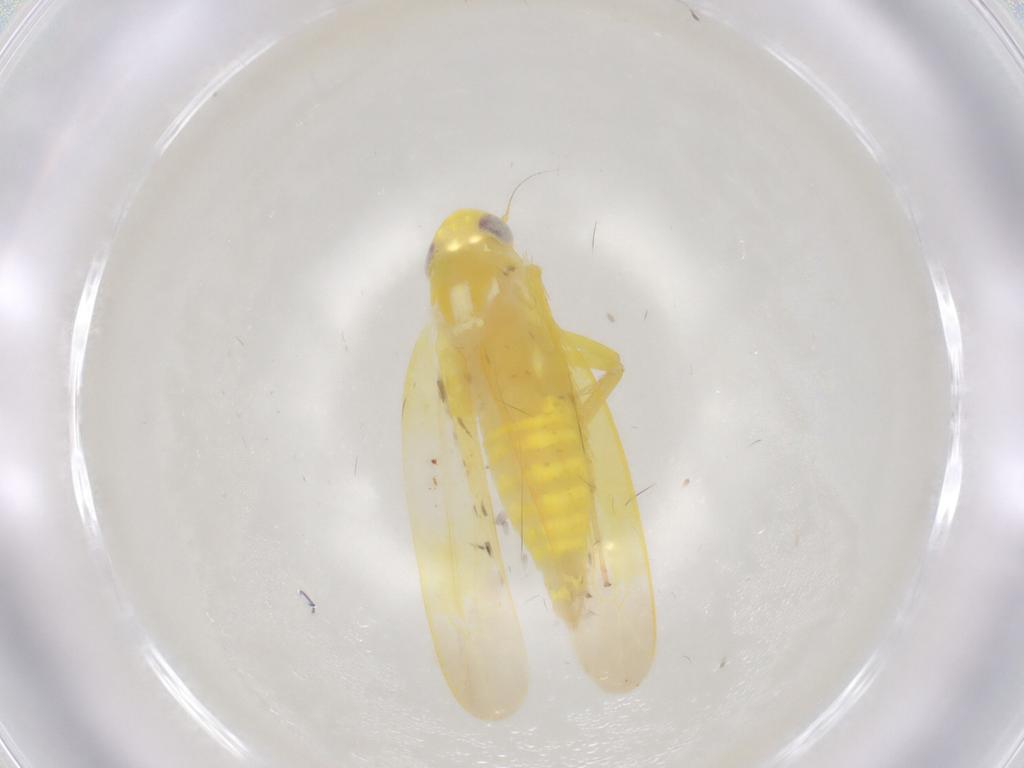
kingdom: Animalia
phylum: Arthropoda
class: Insecta
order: Hemiptera
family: Cicadellidae
